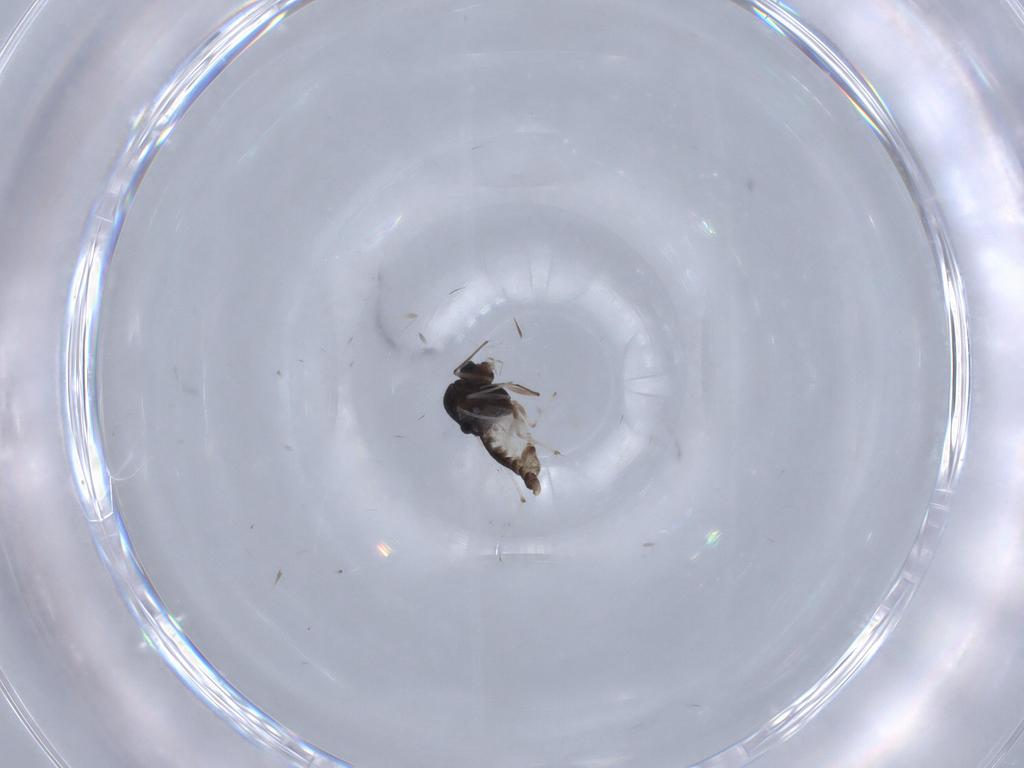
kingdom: Animalia
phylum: Arthropoda
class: Insecta
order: Diptera
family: Chironomidae
